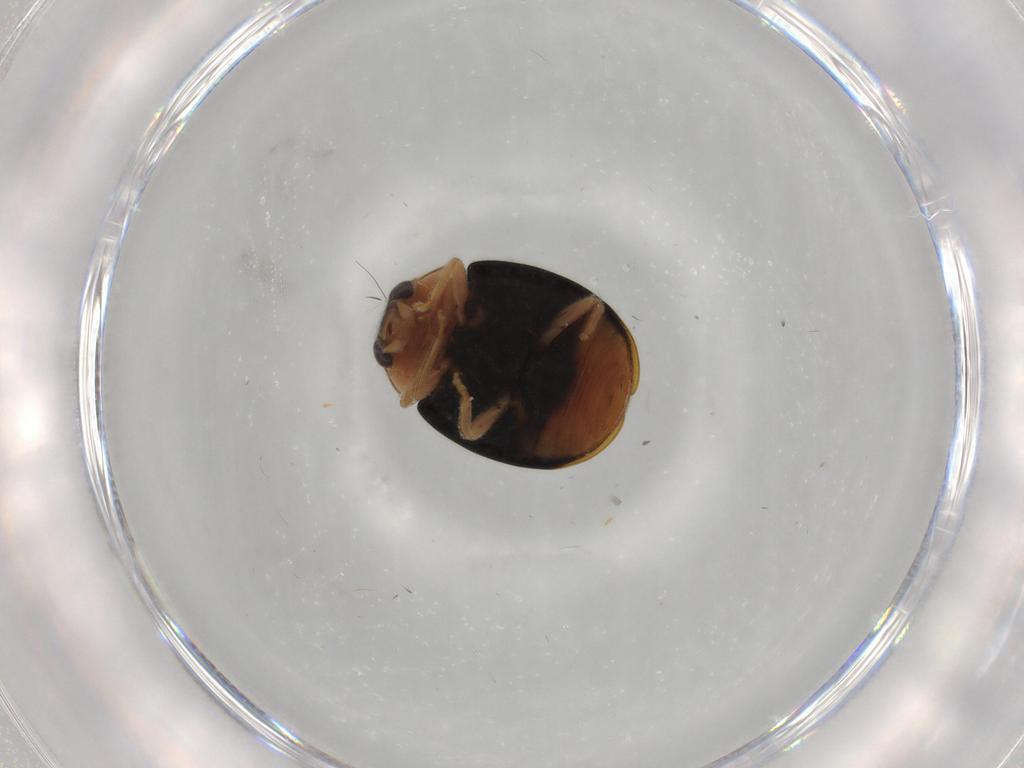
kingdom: Animalia
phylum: Arthropoda
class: Insecta
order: Coleoptera
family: Coccinellidae
